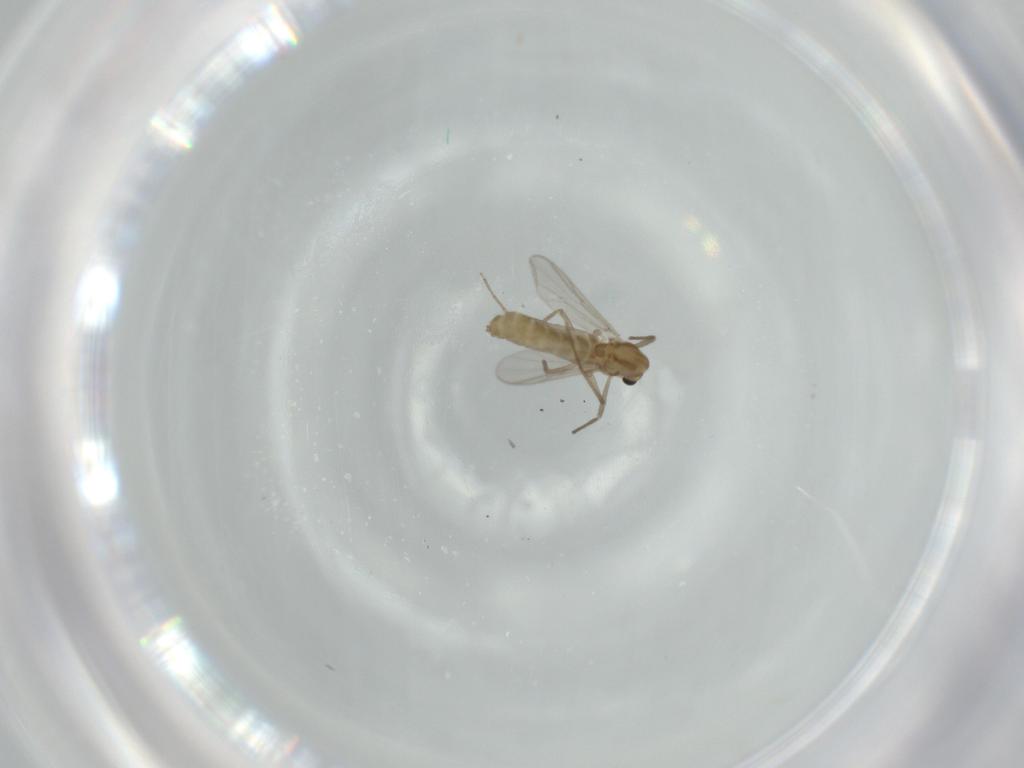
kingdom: Animalia
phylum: Arthropoda
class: Insecta
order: Diptera
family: Chironomidae
